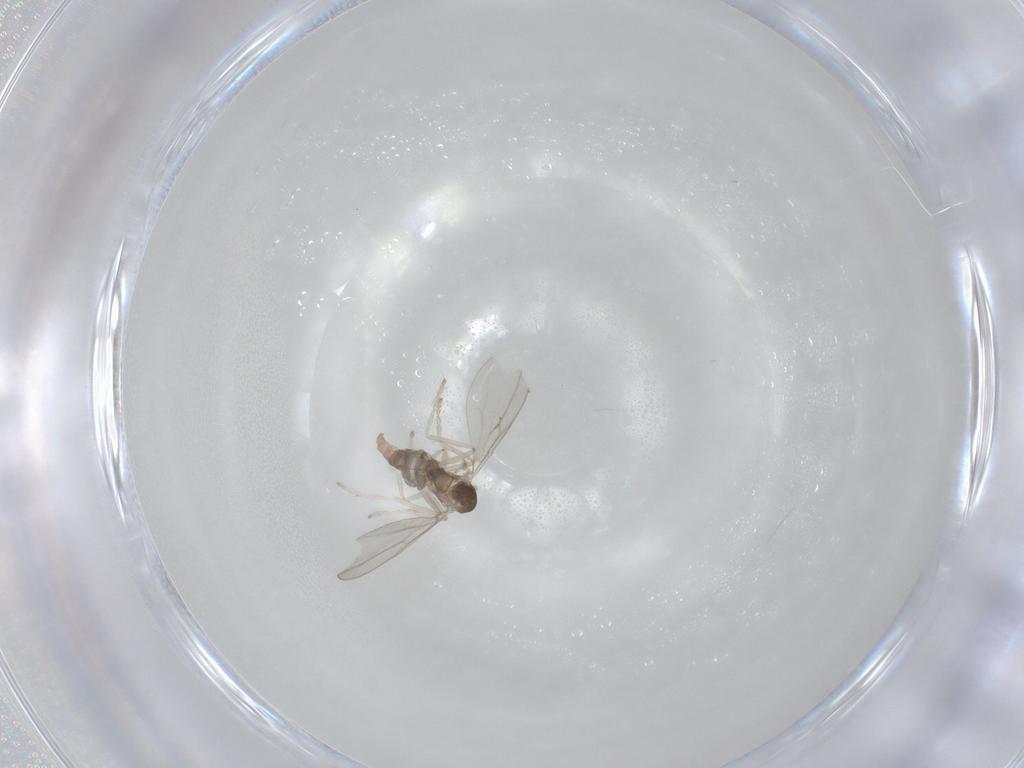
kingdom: Animalia
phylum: Arthropoda
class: Insecta
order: Diptera
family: Cecidomyiidae
